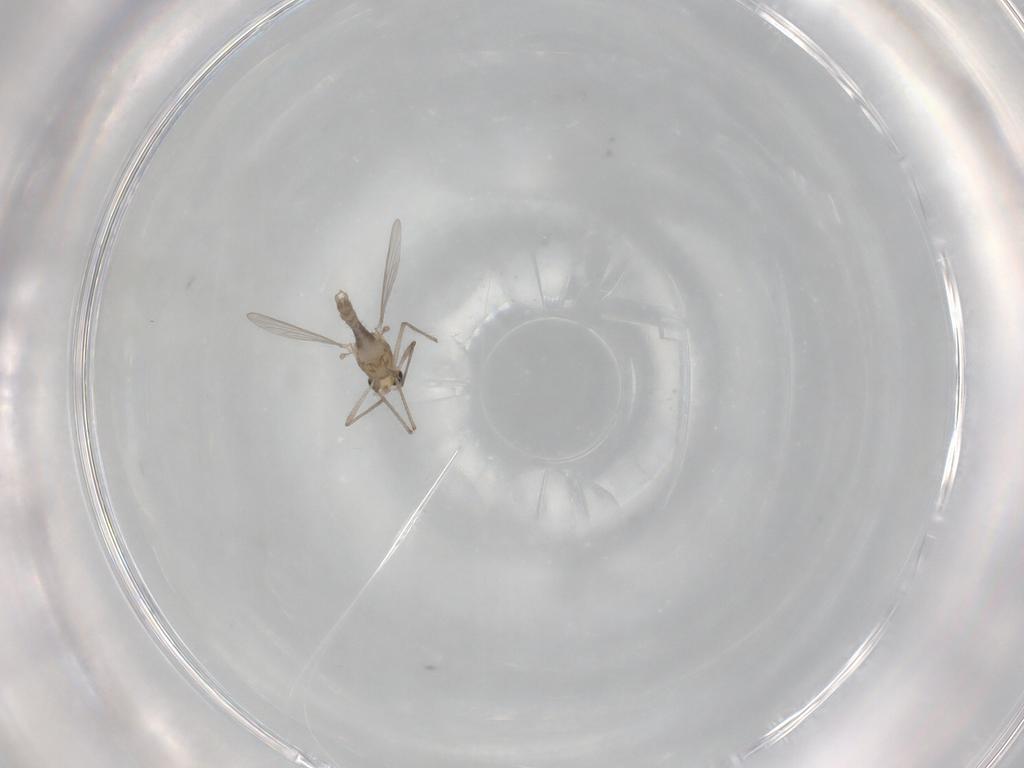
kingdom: Animalia
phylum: Arthropoda
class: Insecta
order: Diptera
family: Chironomidae
